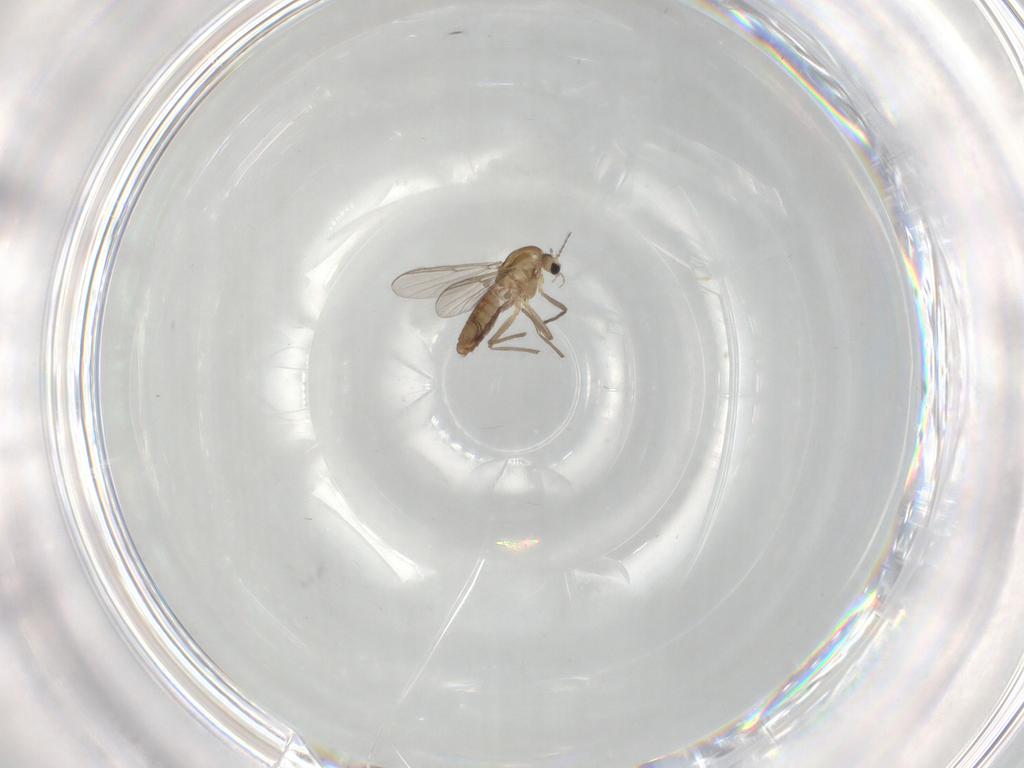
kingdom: Animalia
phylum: Arthropoda
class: Insecta
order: Diptera
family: Chironomidae
